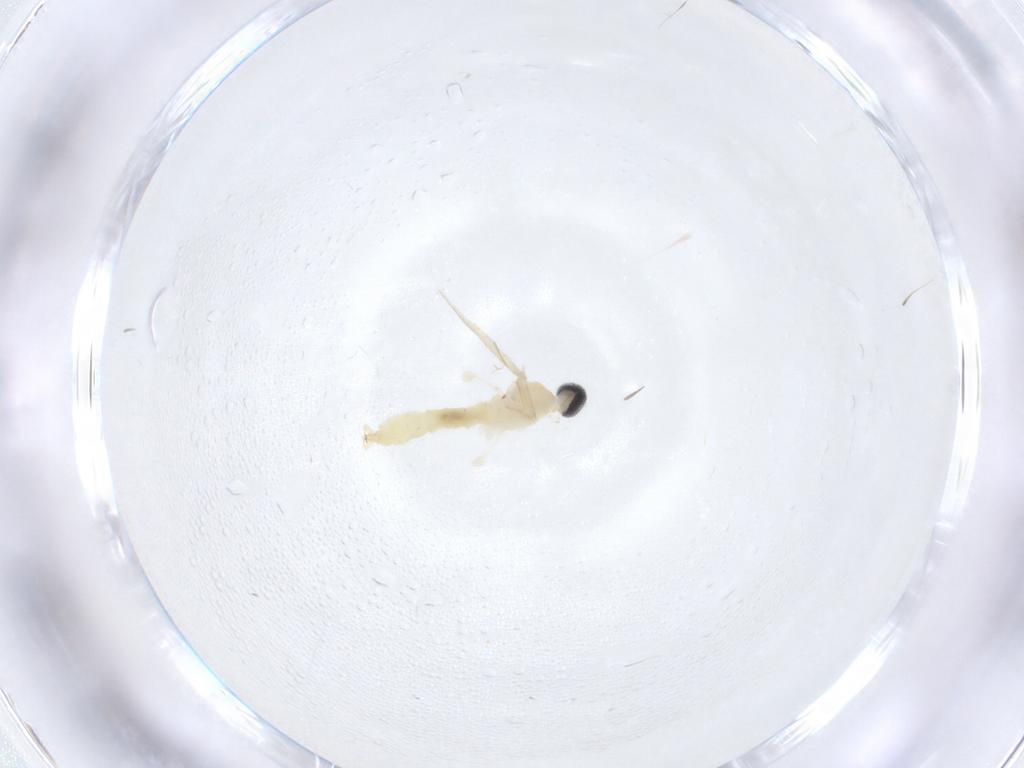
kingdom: Animalia
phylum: Arthropoda
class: Insecta
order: Diptera
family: Cecidomyiidae
